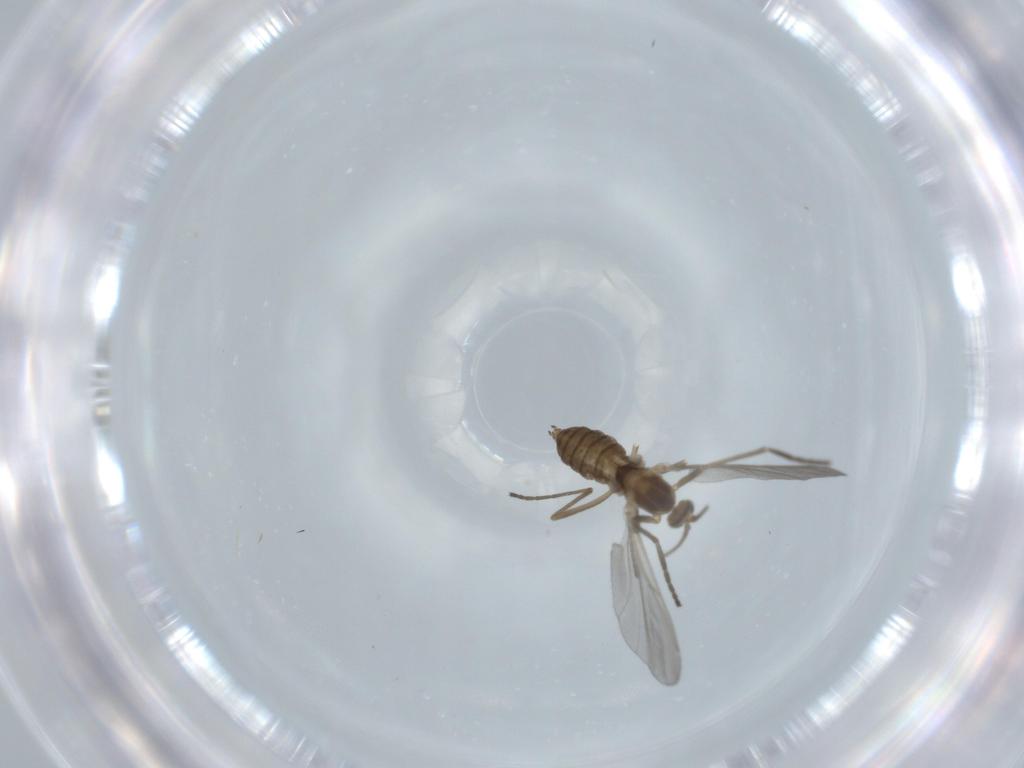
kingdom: Animalia
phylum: Arthropoda
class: Insecta
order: Diptera
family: Cecidomyiidae
